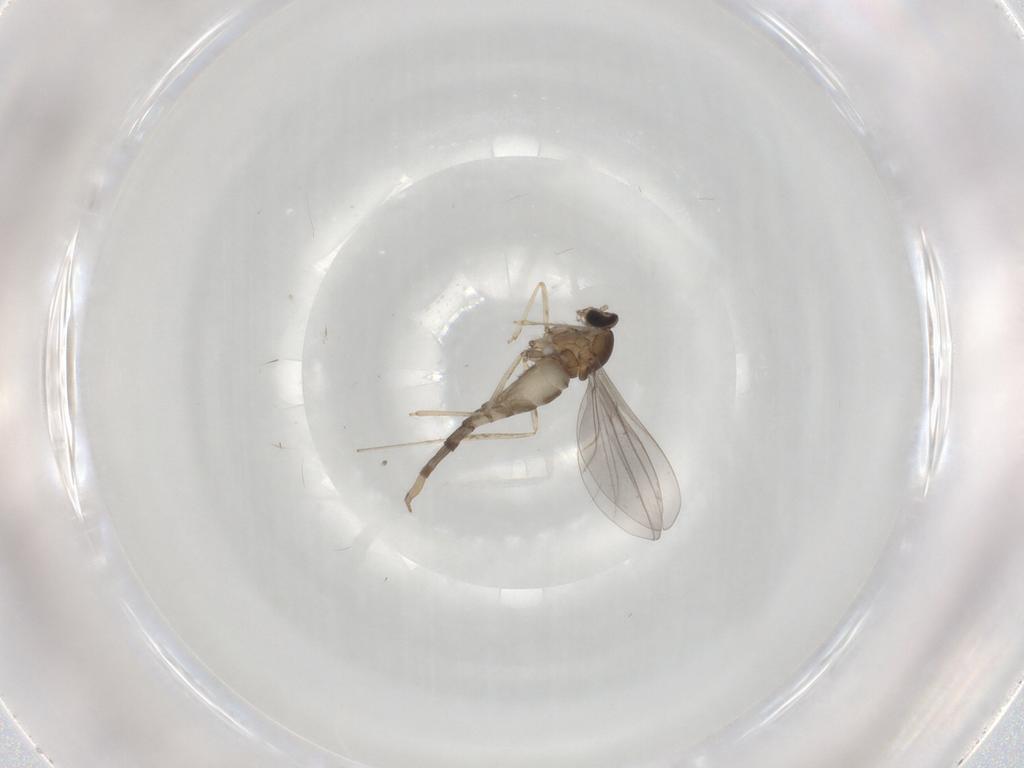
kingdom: Animalia
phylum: Arthropoda
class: Insecta
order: Diptera
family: Cecidomyiidae
